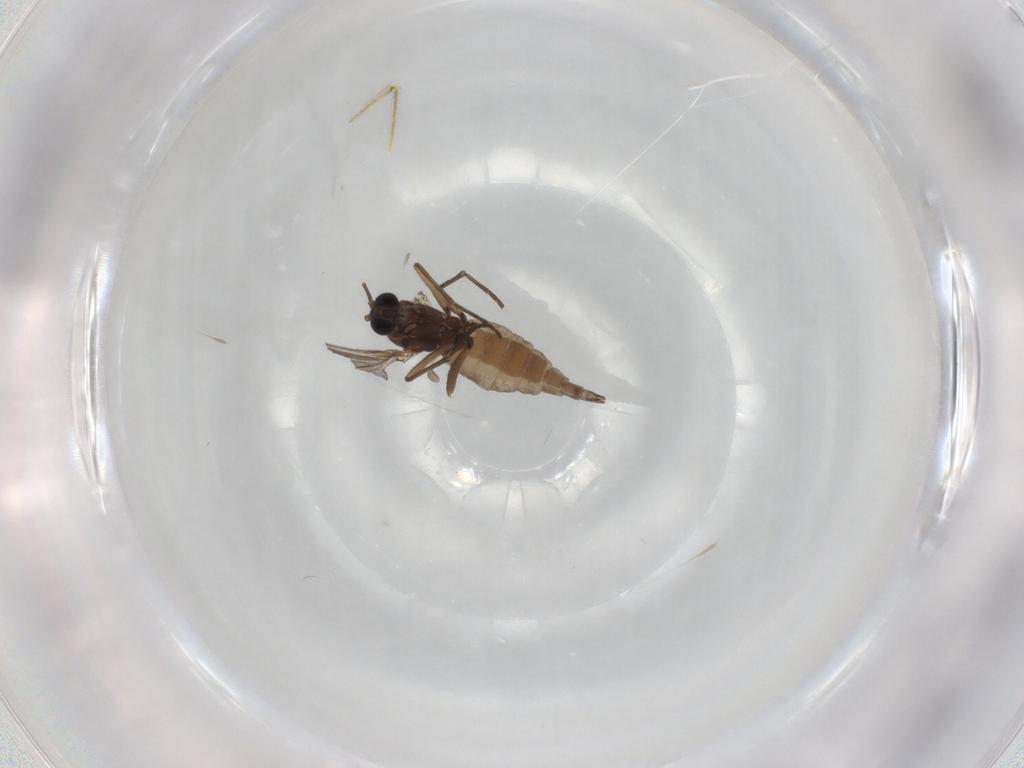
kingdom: Animalia
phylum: Arthropoda
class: Insecta
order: Diptera
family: Sciaridae
